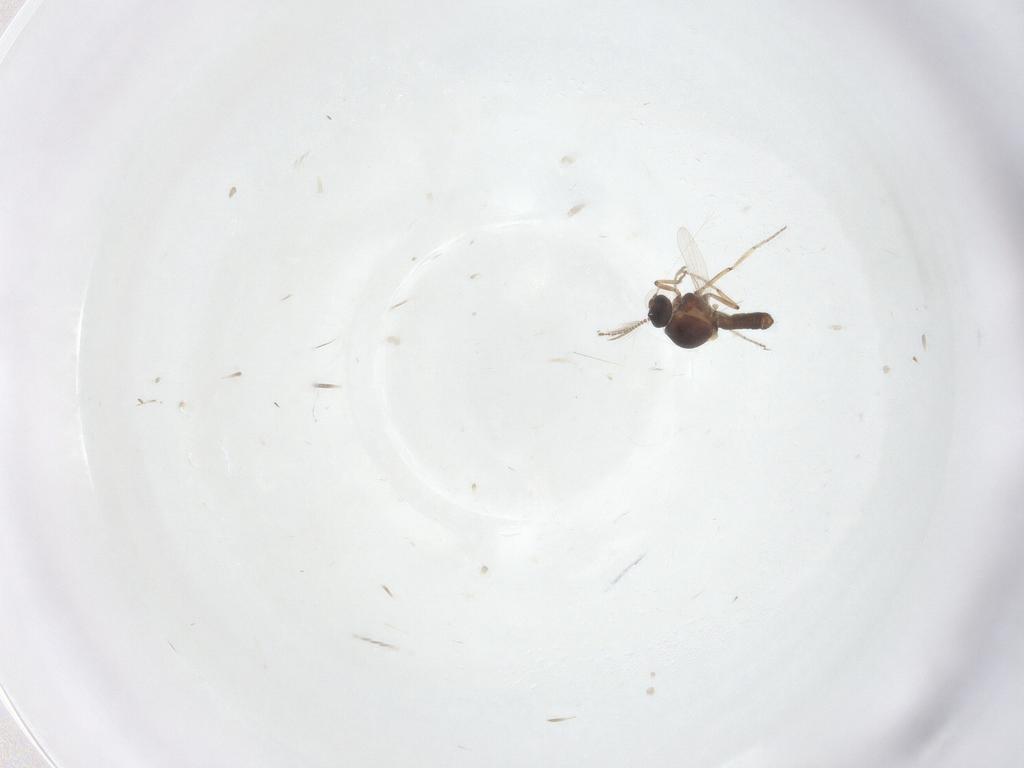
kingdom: Animalia
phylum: Arthropoda
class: Insecta
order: Diptera
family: Ceratopogonidae
